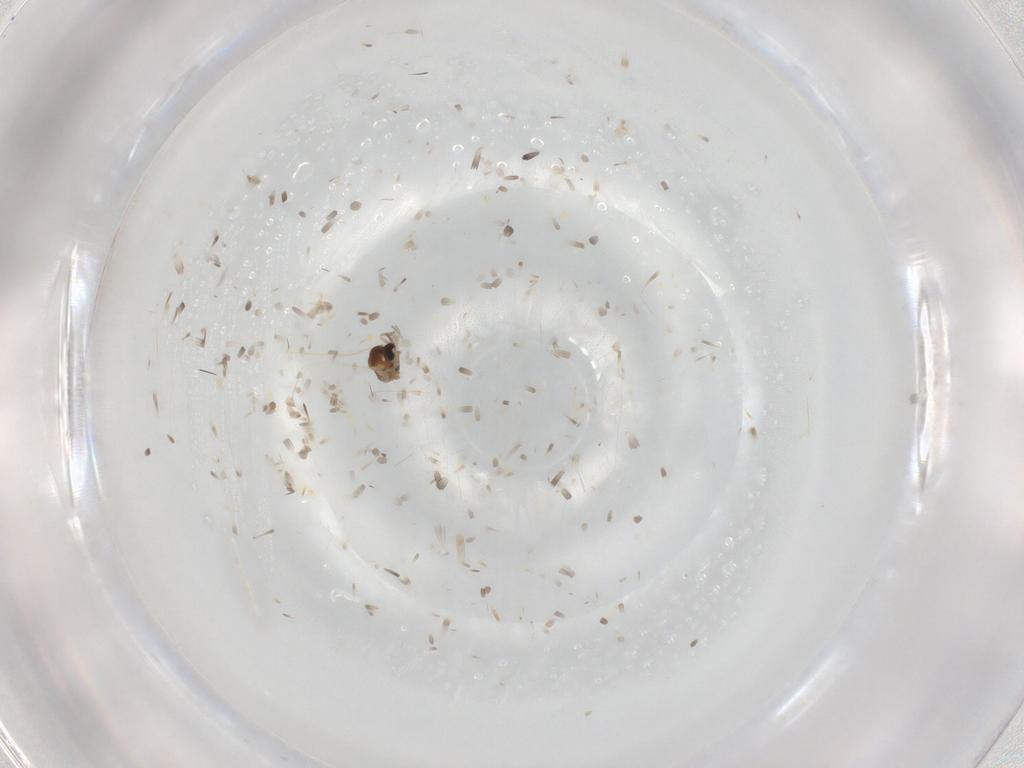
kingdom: Animalia
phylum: Arthropoda
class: Insecta
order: Diptera
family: Cecidomyiidae
